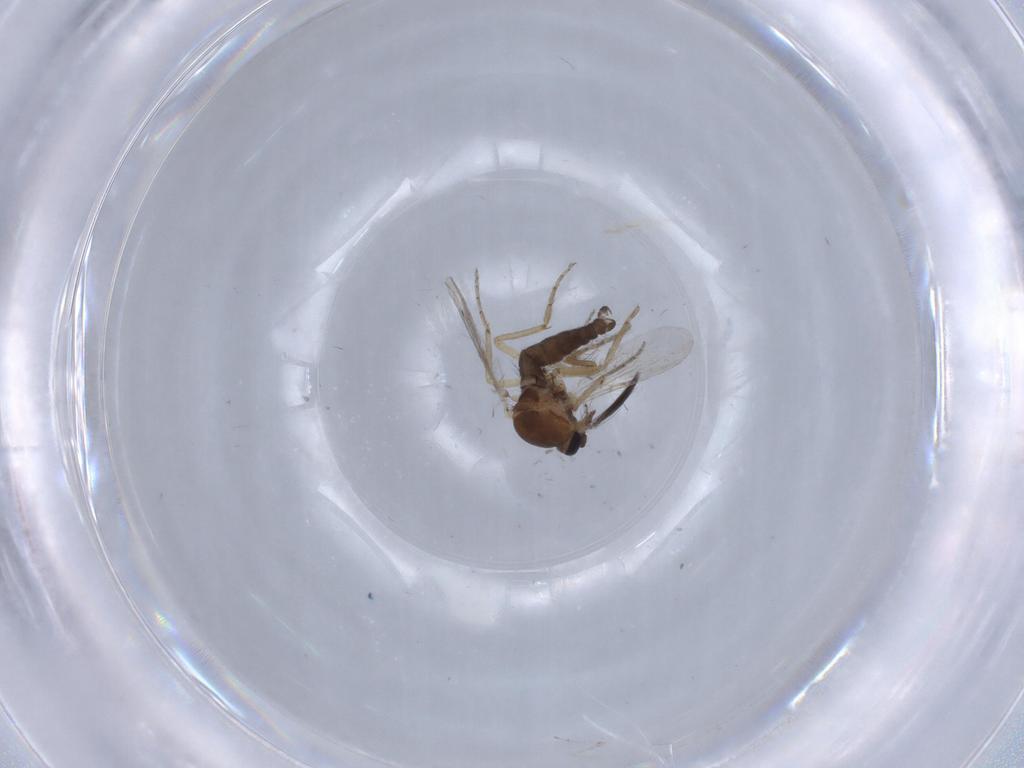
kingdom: Animalia
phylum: Arthropoda
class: Insecta
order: Diptera
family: Ceratopogonidae
